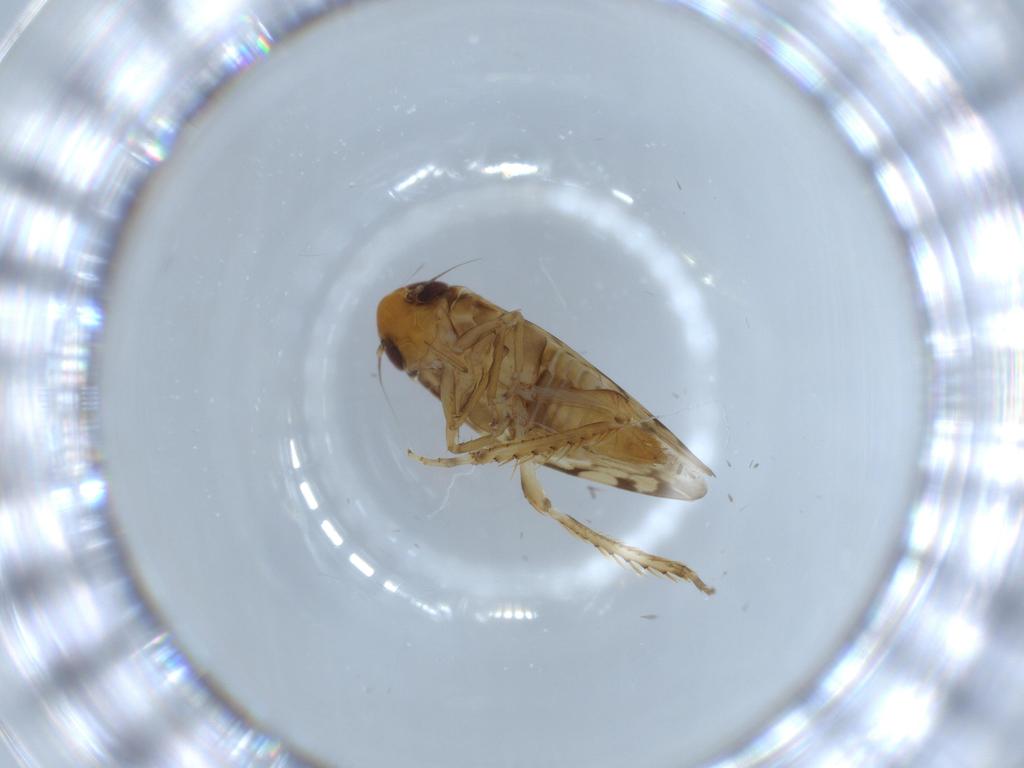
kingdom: Animalia
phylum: Arthropoda
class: Insecta
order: Hemiptera
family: Cicadellidae
